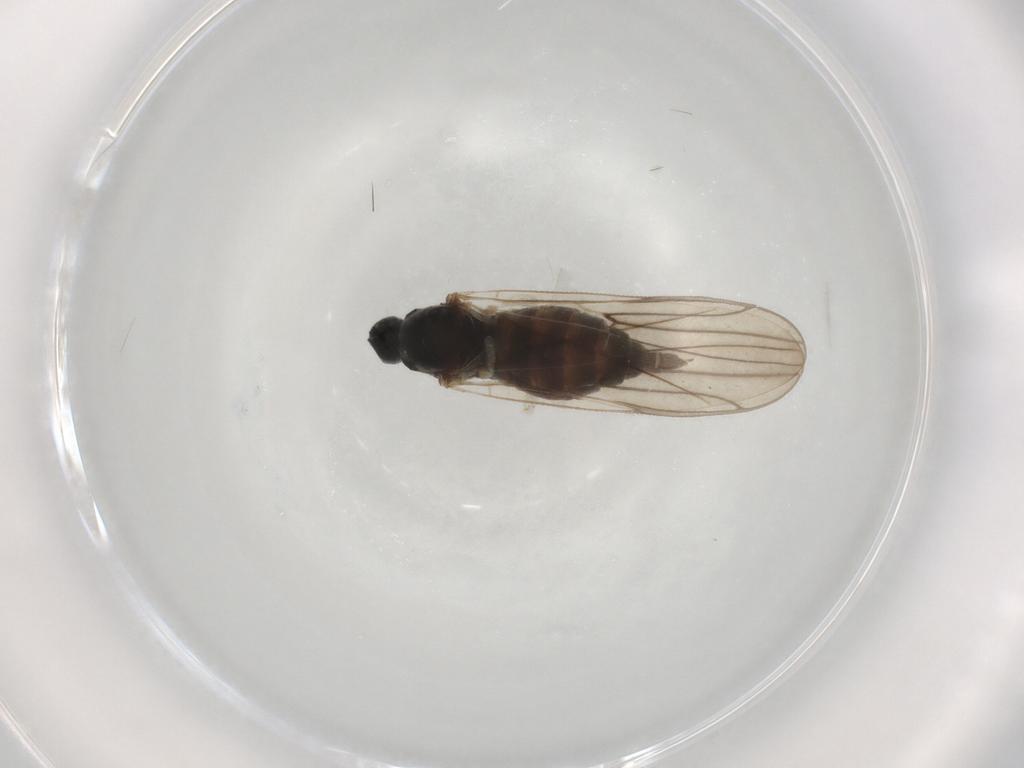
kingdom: Animalia
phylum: Arthropoda
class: Insecta
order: Diptera
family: Hybotidae
